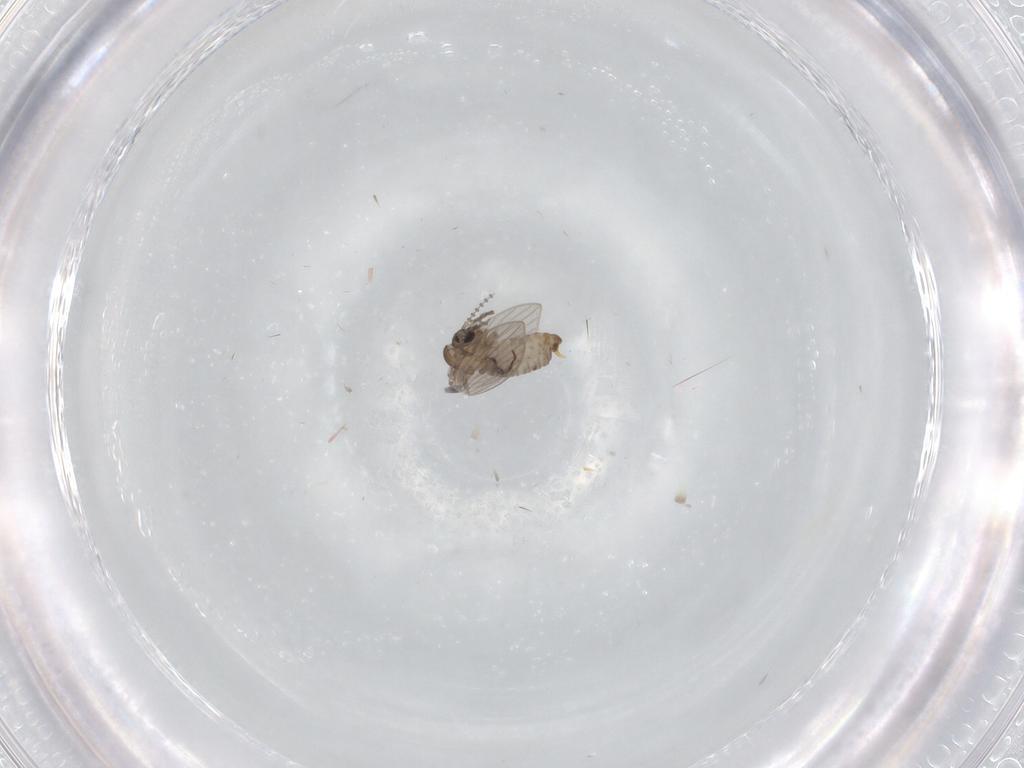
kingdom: Animalia
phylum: Arthropoda
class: Insecta
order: Diptera
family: Psychodidae
